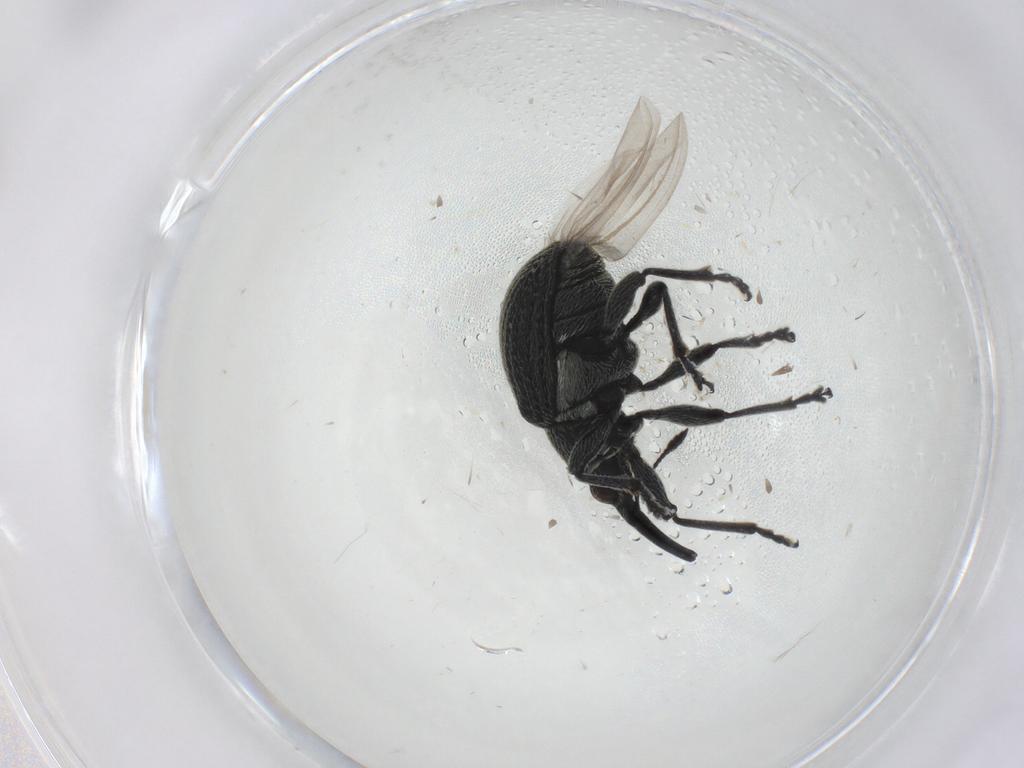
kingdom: Animalia
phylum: Arthropoda
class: Insecta
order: Coleoptera
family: Brentidae
